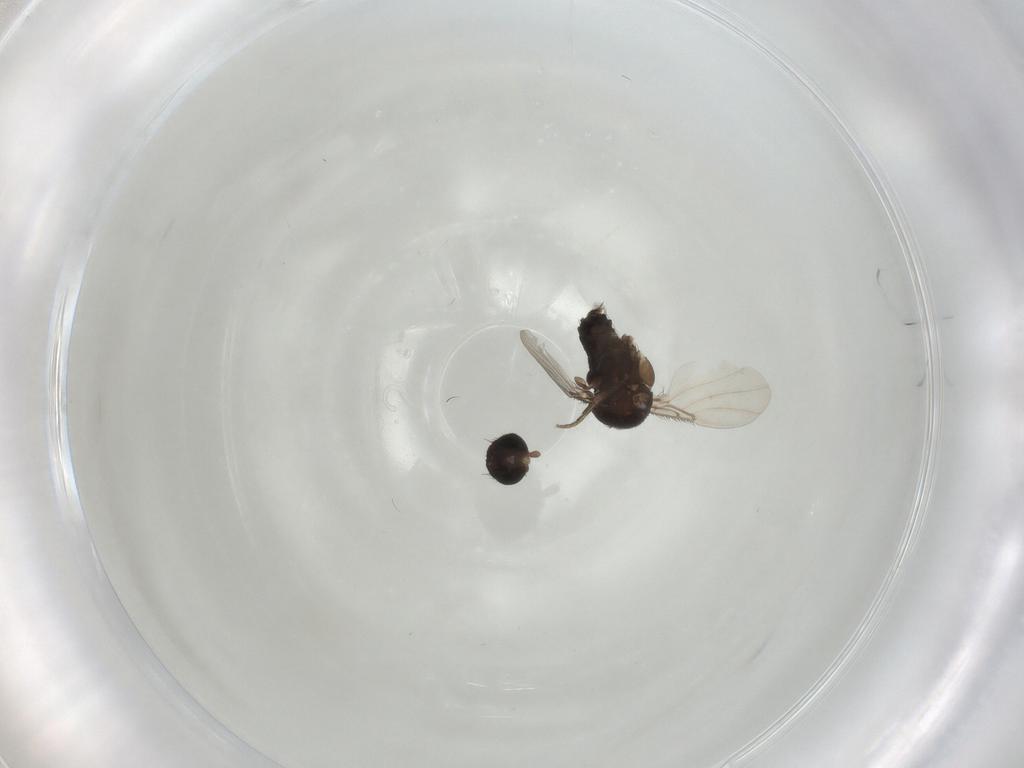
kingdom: Animalia
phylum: Arthropoda
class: Insecta
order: Diptera
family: Phoridae
